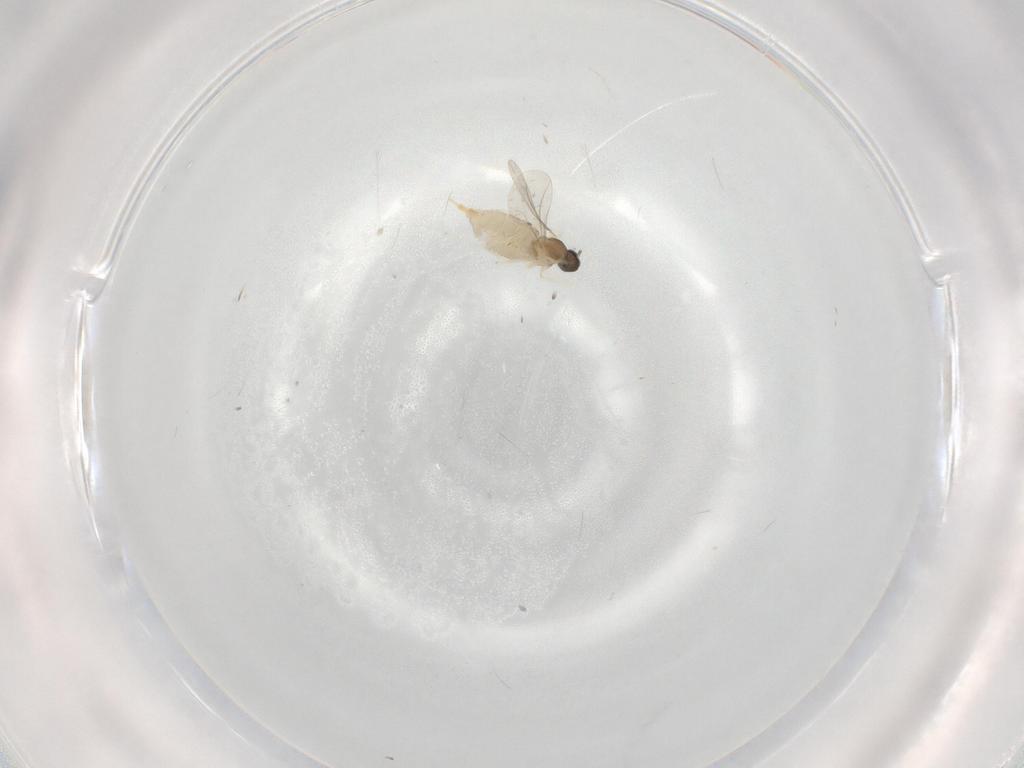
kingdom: Animalia
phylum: Arthropoda
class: Insecta
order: Diptera
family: Cecidomyiidae
